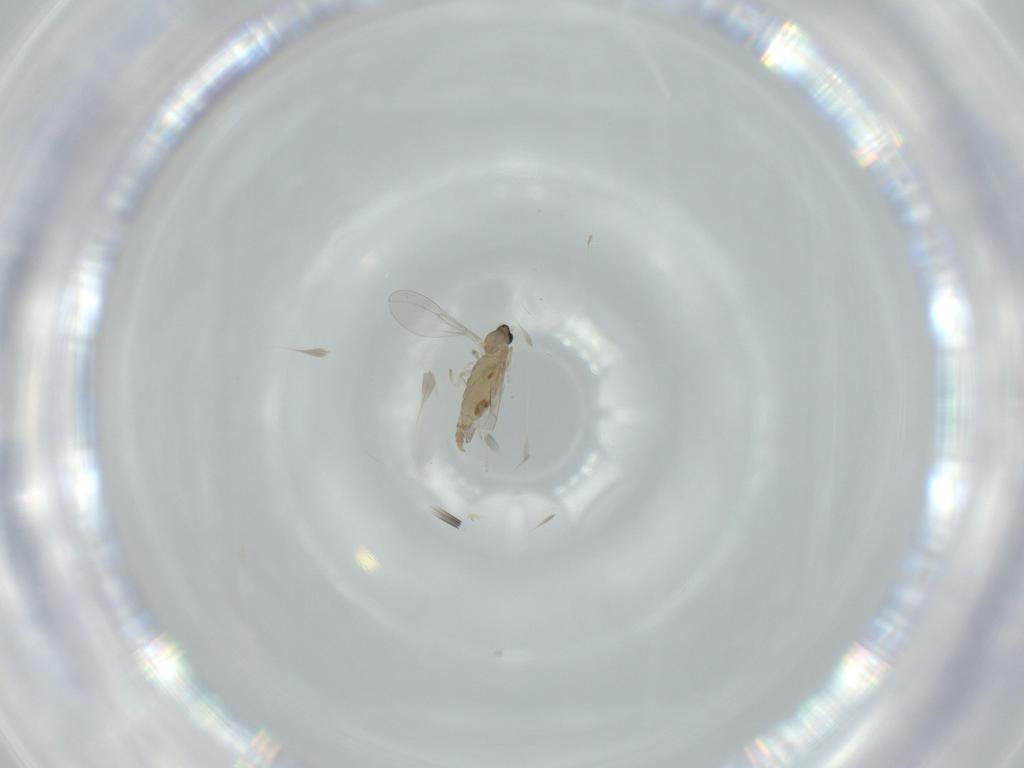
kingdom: Animalia
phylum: Arthropoda
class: Insecta
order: Diptera
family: Cecidomyiidae
